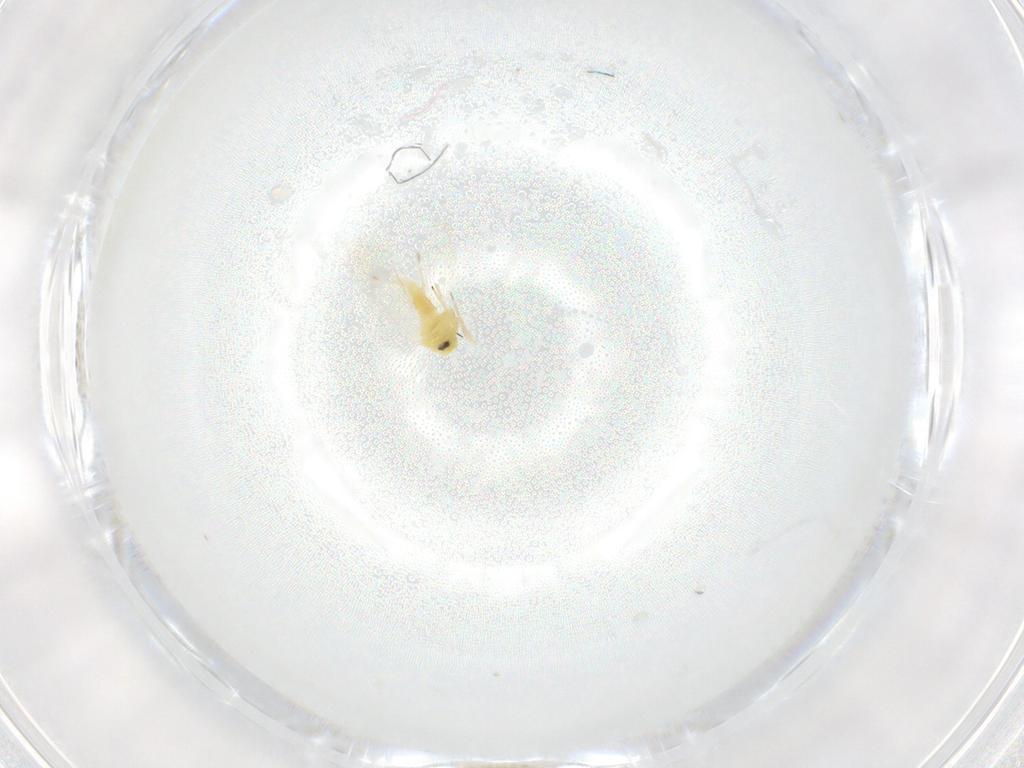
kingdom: Animalia
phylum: Arthropoda
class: Insecta
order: Hemiptera
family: Aleyrodidae
